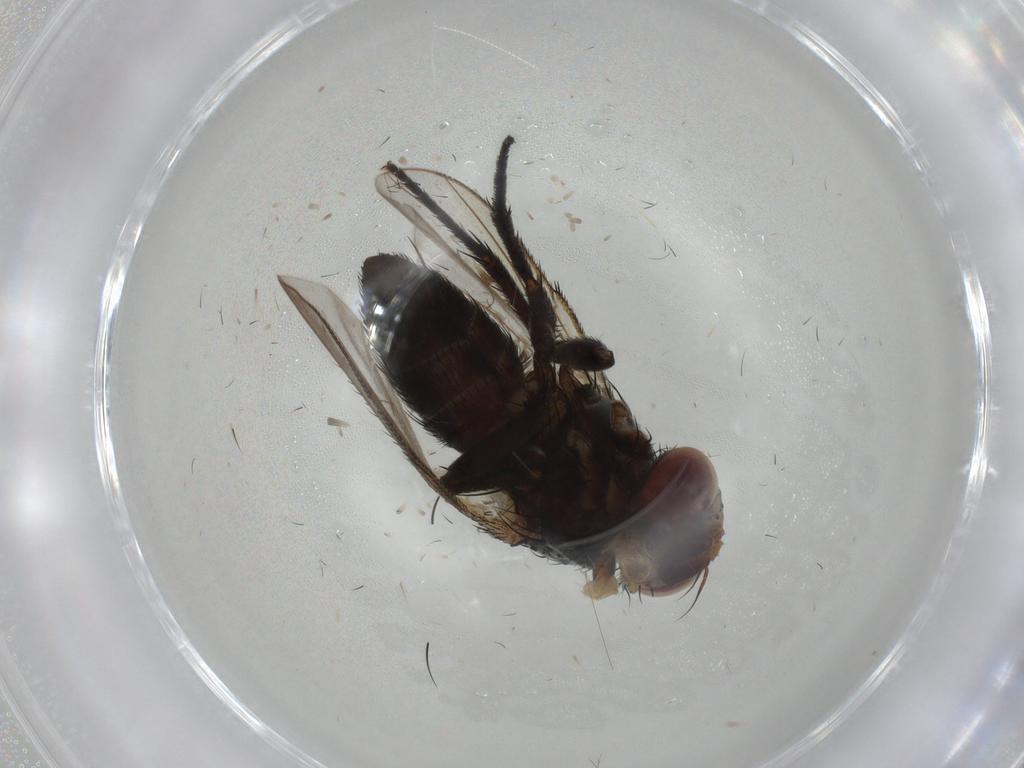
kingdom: Animalia
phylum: Arthropoda
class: Insecta
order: Diptera
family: Tachinidae
